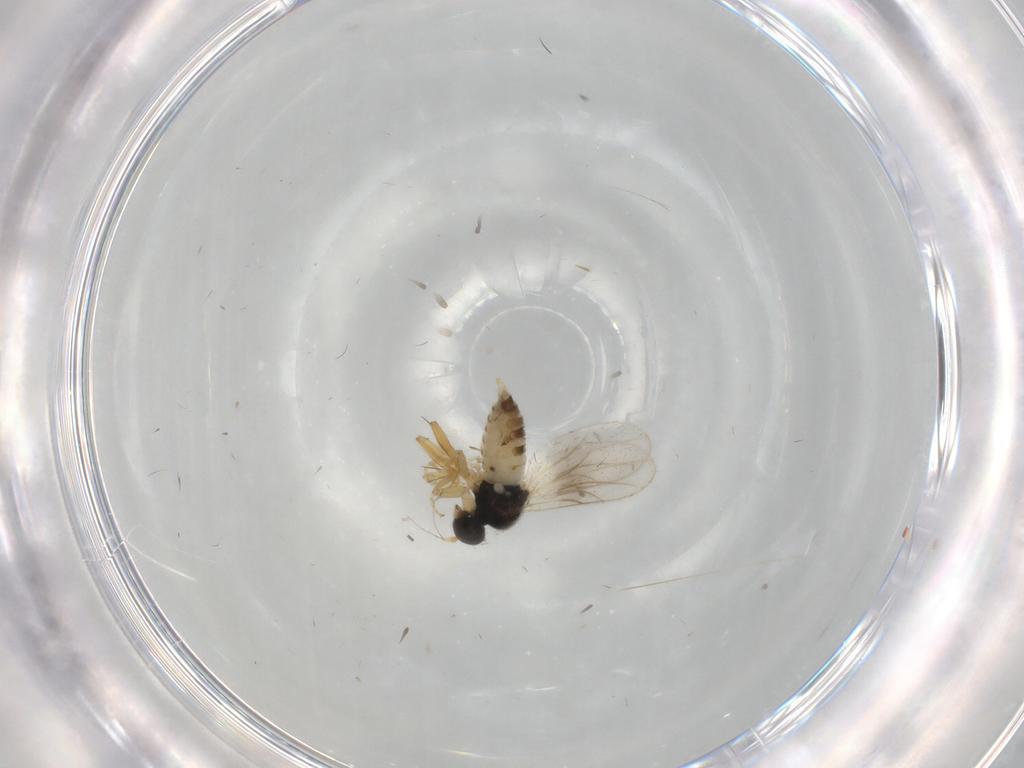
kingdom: Animalia
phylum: Arthropoda
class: Insecta
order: Diptera
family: Hybotidae
